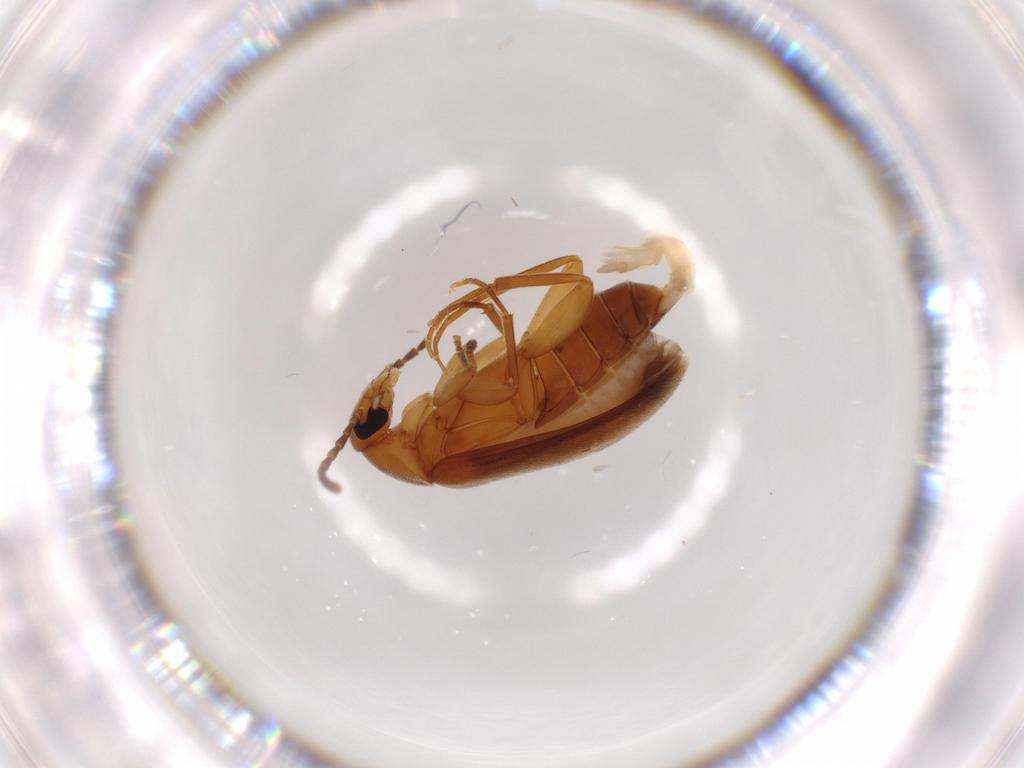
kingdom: Animalia
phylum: Arthropoda
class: Insecta
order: Coleoptera
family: Scraptiidae
